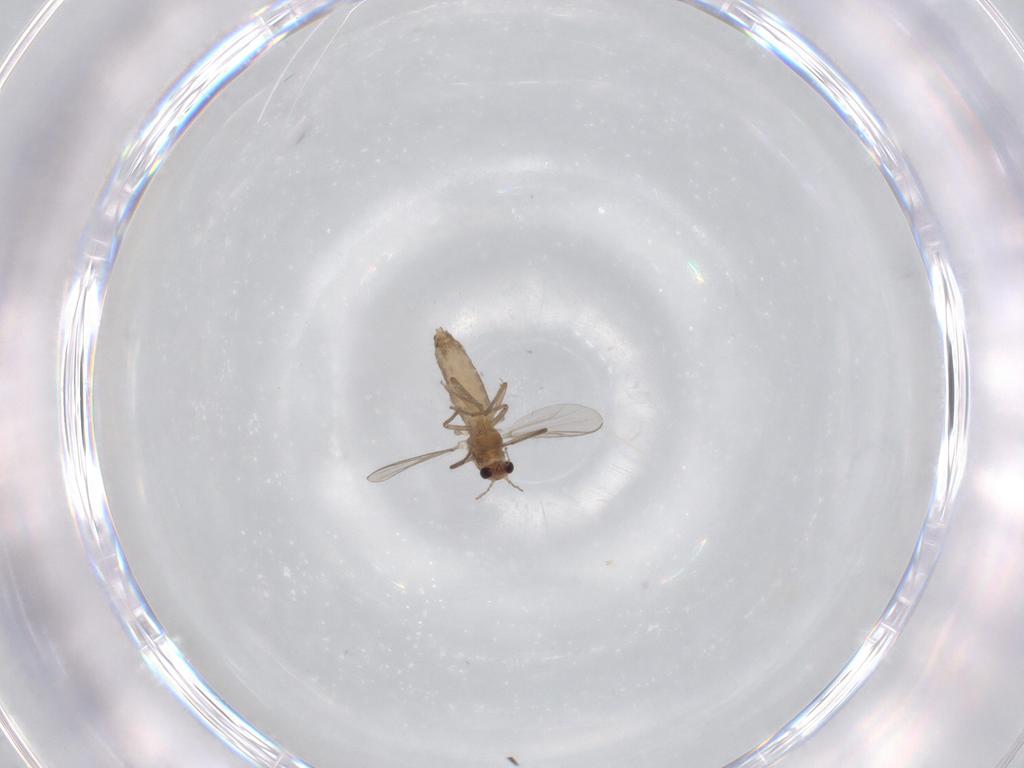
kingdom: Animalia
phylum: Arthropoda
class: Insecta
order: Diptera
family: Chironomidae
